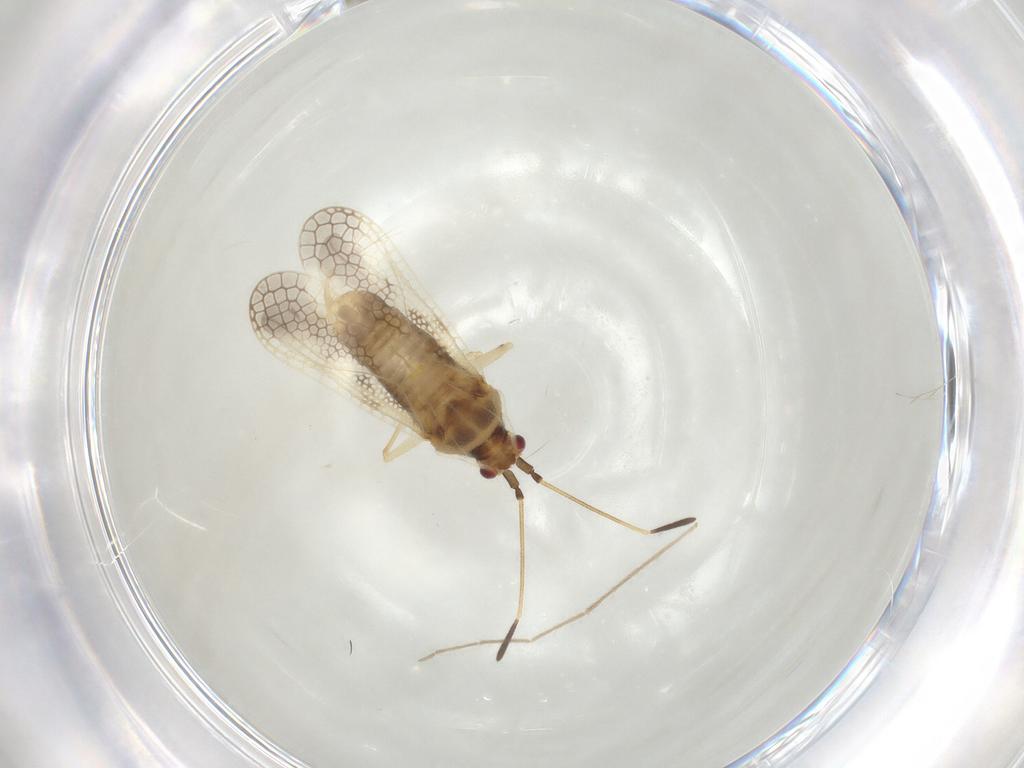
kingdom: Animalia
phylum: Arthropoda
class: Insecta
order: Hemiptera
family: Tingidae
